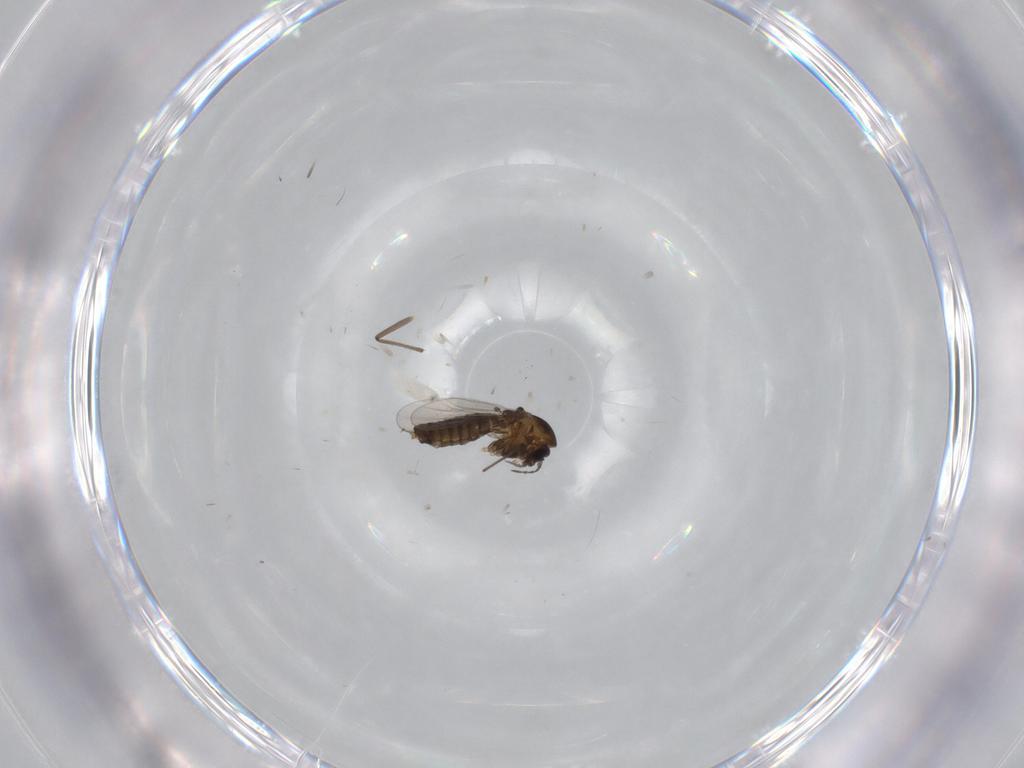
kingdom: Animalia
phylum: Arthropoda
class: Insecta
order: Diptera
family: Chironomidae
